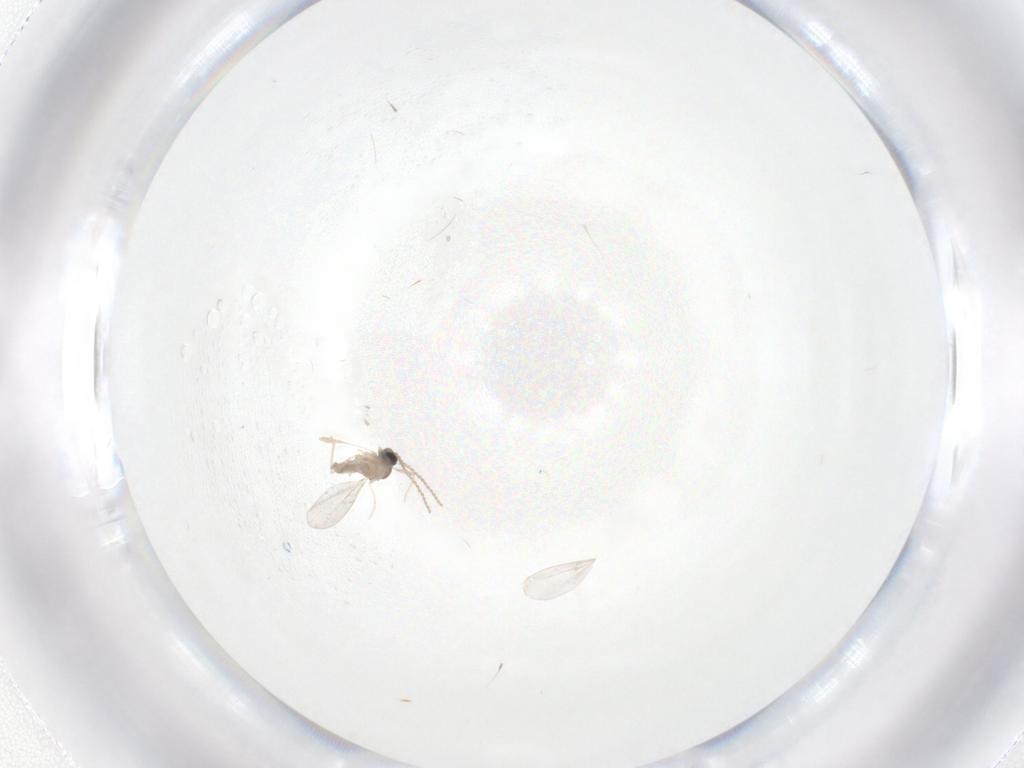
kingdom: Animalia
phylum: Arthropoda
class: Insecta
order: Diptera
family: Cecidomyiidae
